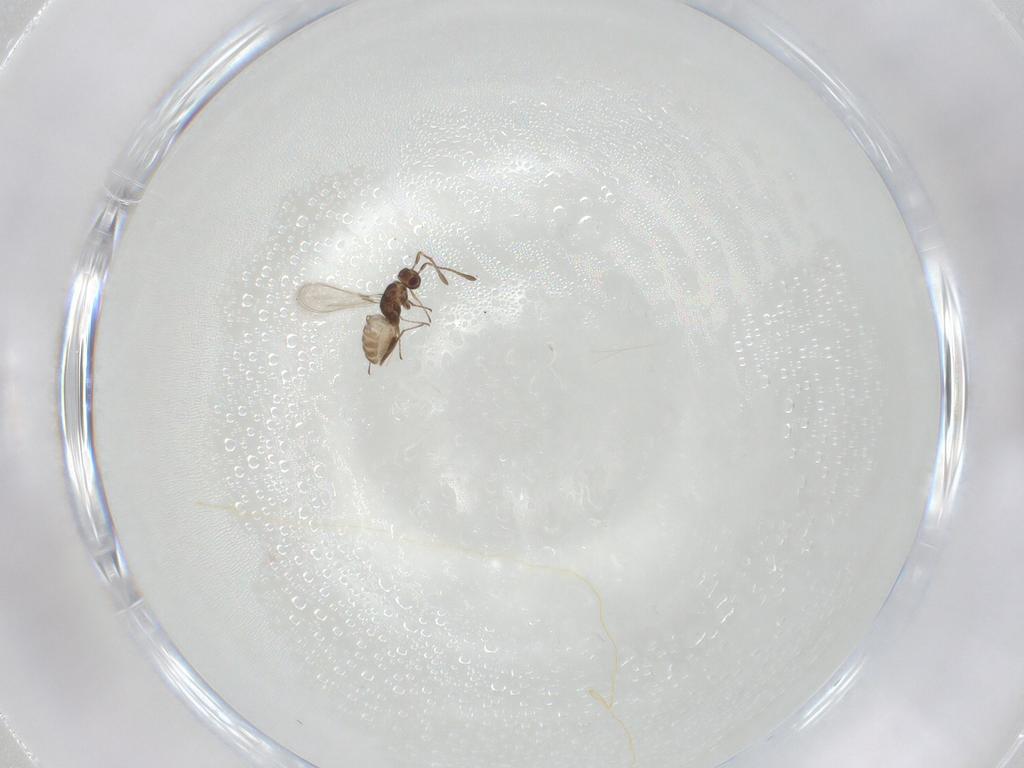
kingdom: Animalia
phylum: Arthropoda
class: Insecta
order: Hymenoptera
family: Mymaridae
